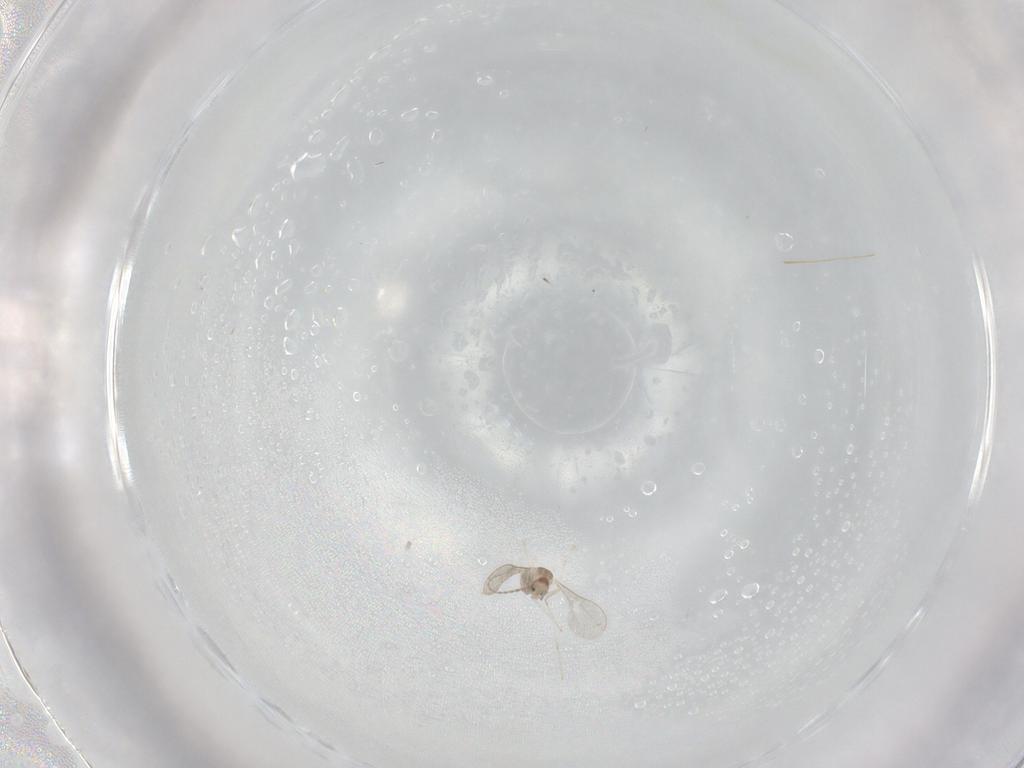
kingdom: Animalia
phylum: Arthropoda
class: Insecta
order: Diptera
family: Cecidomyiidae
